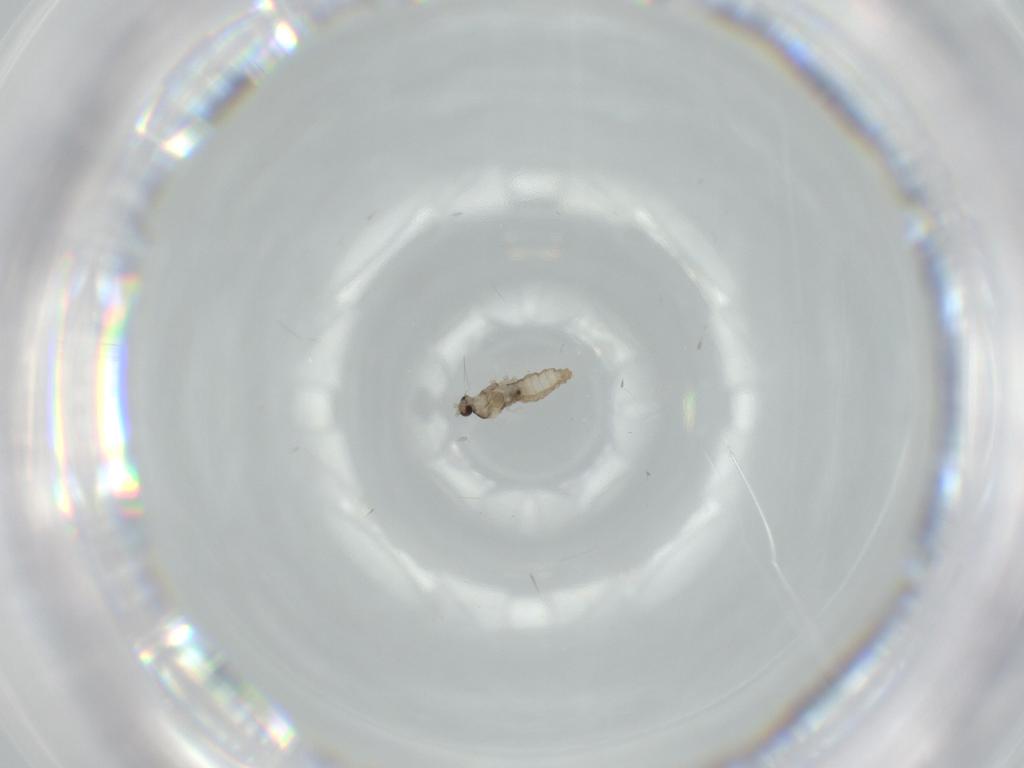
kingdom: Animalia
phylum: Arthropoda
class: Insecta
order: Diptera
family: Cecidomyiidae
